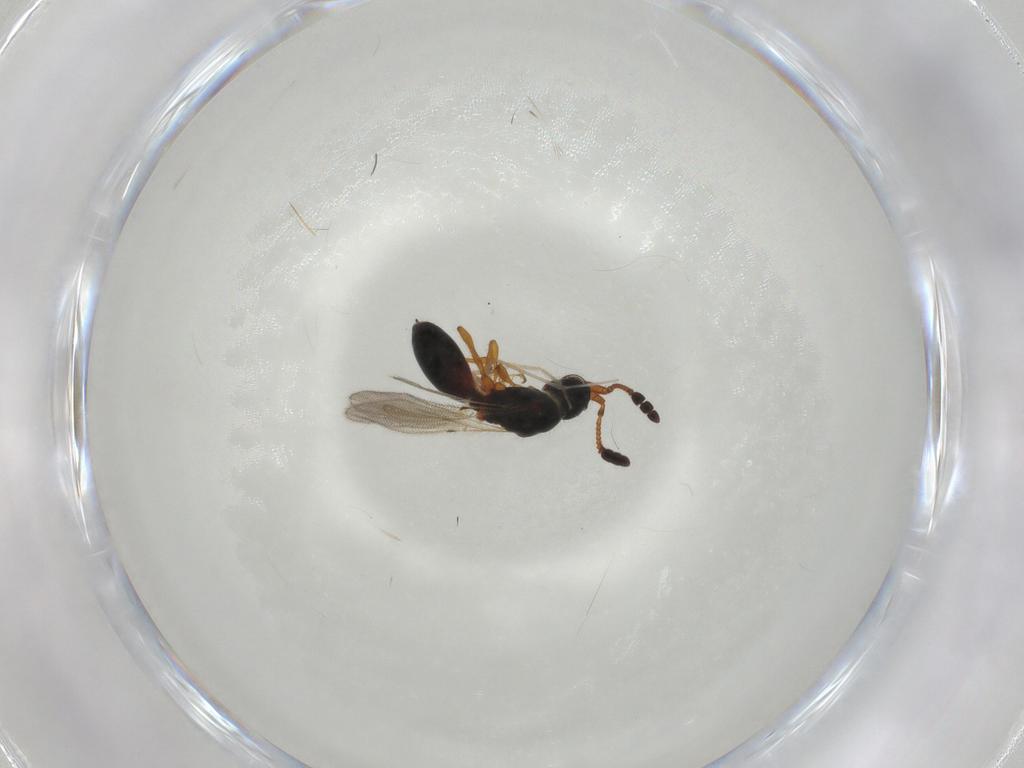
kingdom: Animalia
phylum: Arthropoda
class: Insecta
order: Hymenoptera
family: Diapriidae
